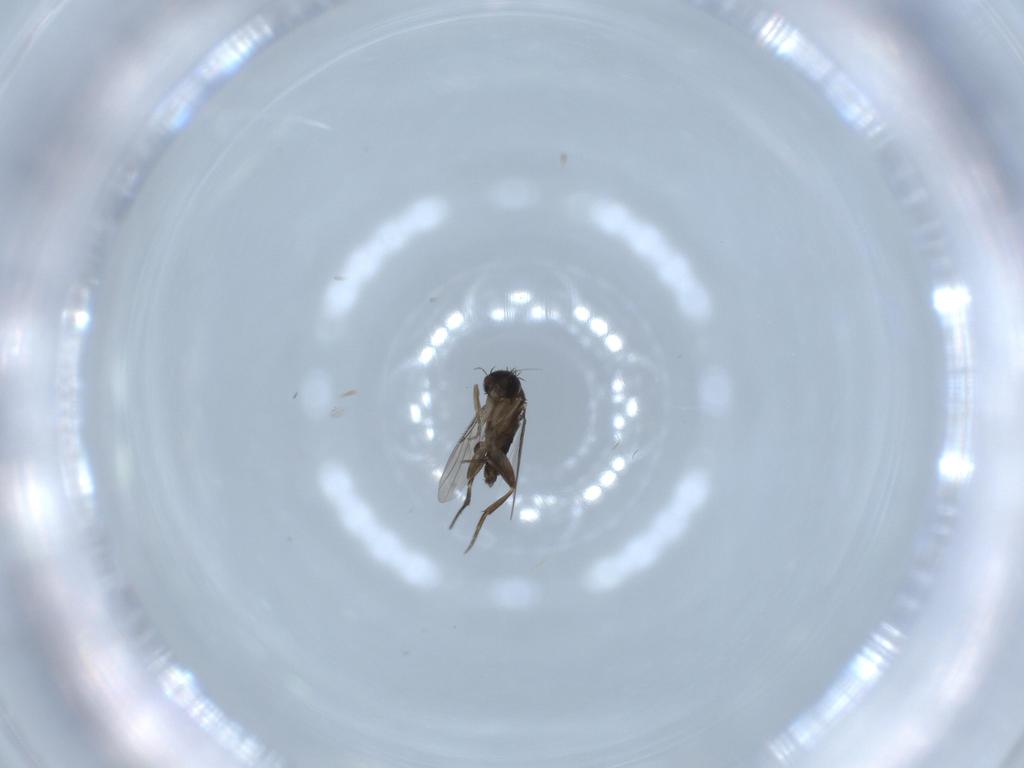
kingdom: Animalia
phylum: Arthropoda
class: Insecta
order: Diptera
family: Phoridae
